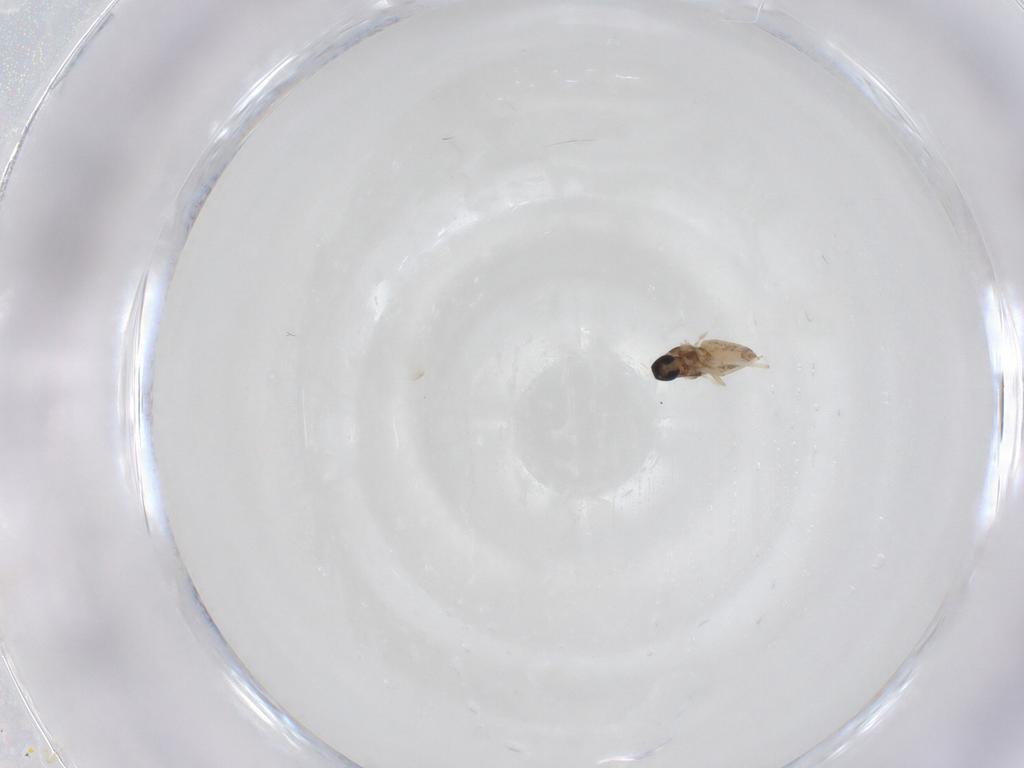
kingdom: Animalia
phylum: Arthropoda
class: Insecta
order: Diptera
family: Cecidomyiidae
